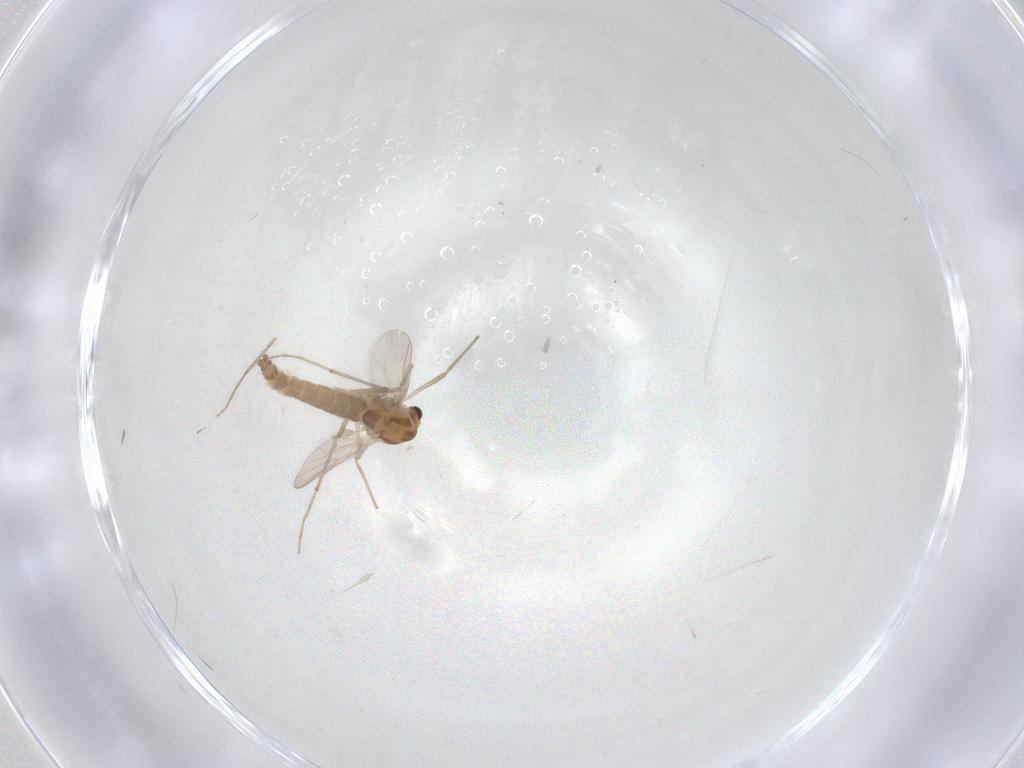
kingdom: Animalia
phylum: Arthropoda
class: Insecta
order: Diptera
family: Chironomidae
